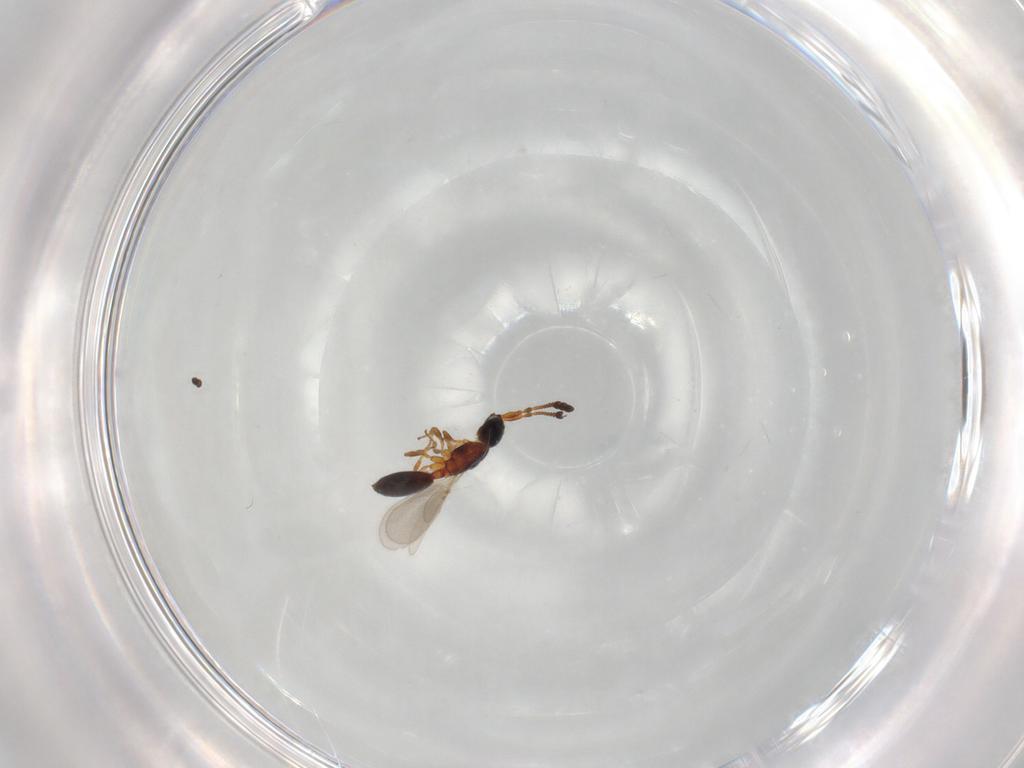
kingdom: Animalia
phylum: Arthropoda
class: Insecta
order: Hymenoptera
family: Diapriidae
